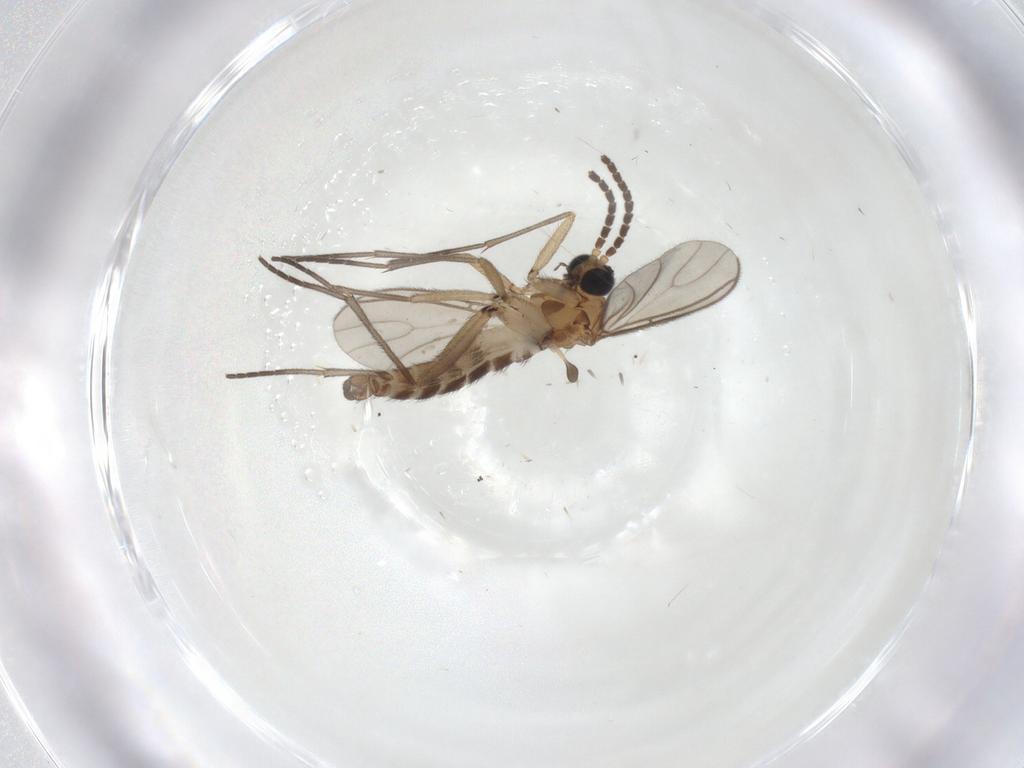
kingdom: Animalia
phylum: Arthropoda
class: Insecta
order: Diptera
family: Sciaridae
